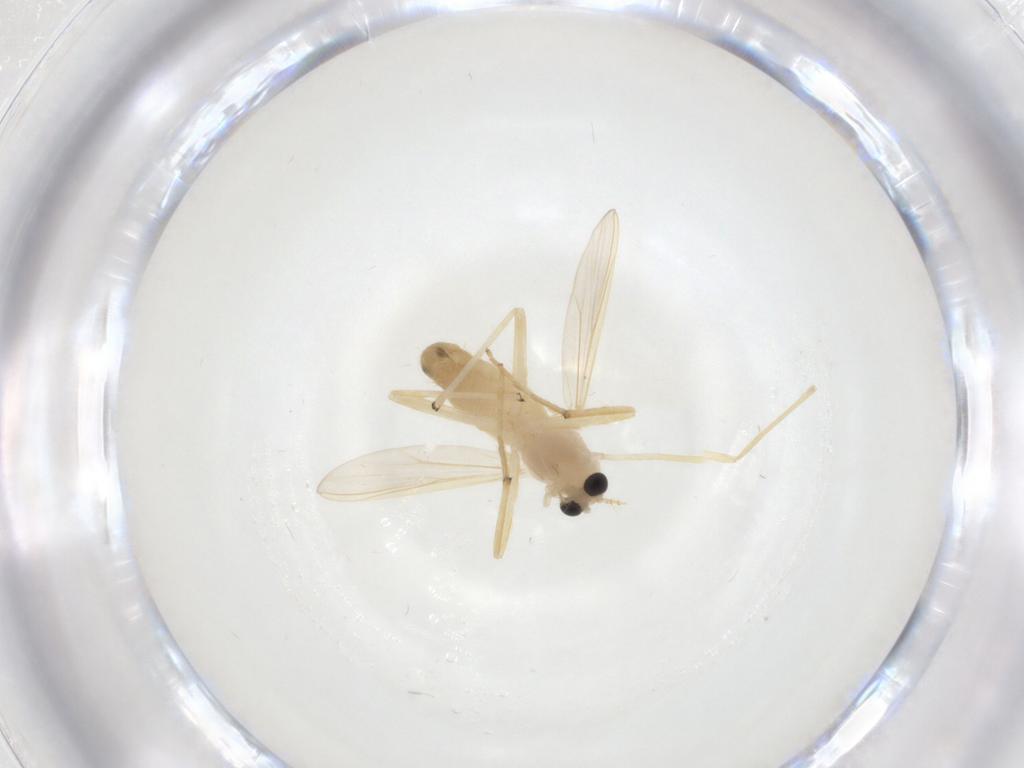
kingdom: Animalia
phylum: Arthropoda
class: Insecta
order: Diptera
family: Chironomidae
